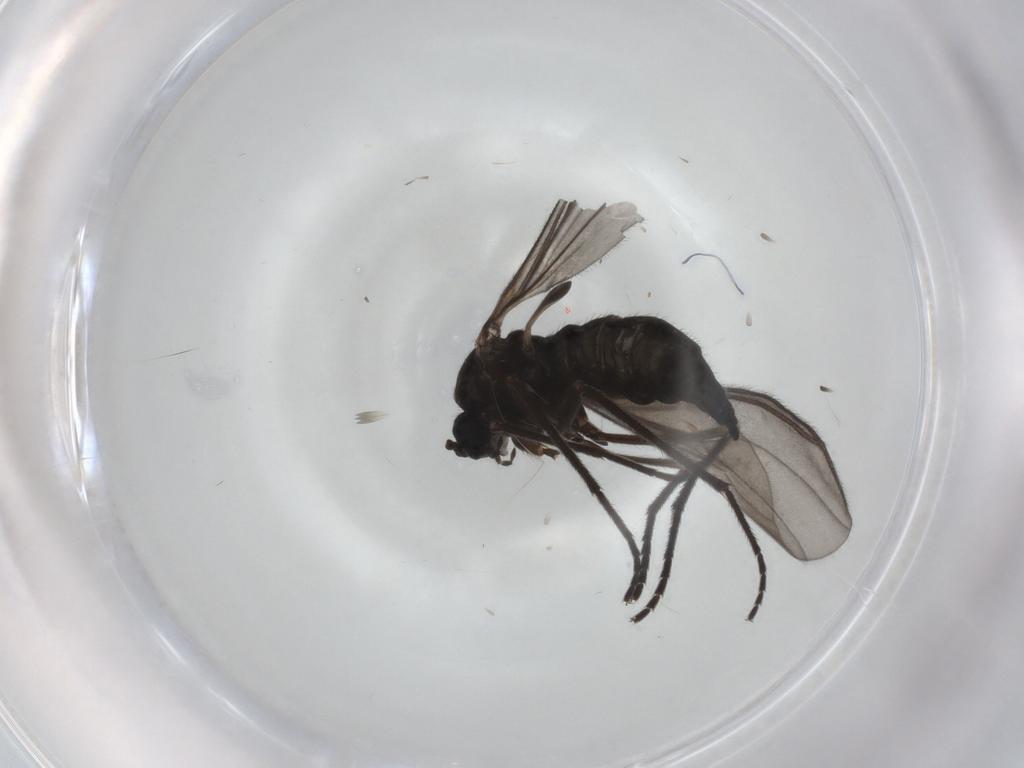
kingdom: Animalia
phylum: Arthropoda
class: Insecta
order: Diptera
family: Sciaridae
